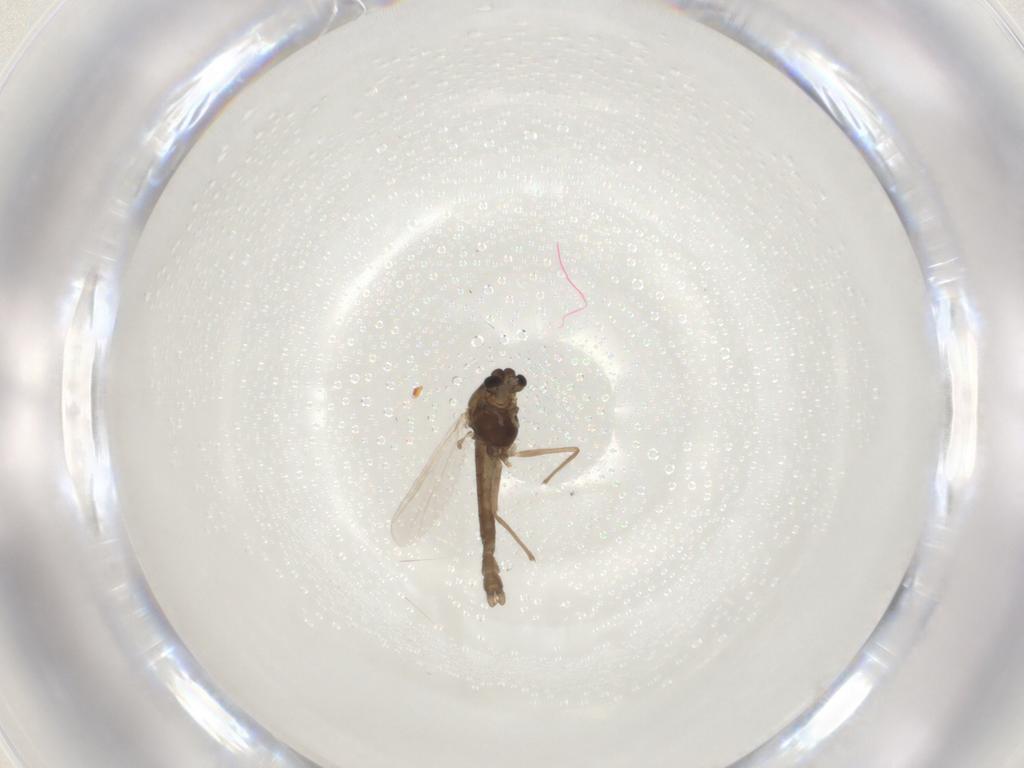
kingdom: Animalia
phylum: Arthropoda
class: Insecta
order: Diptera
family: Chironomidae
